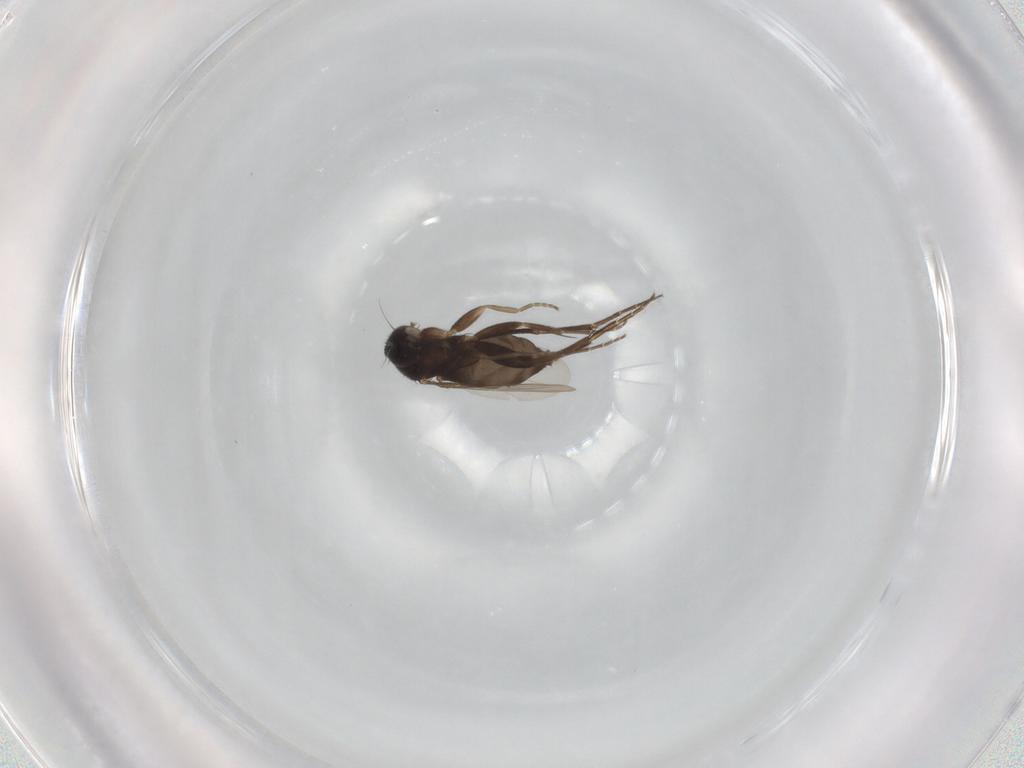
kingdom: Animalia
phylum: Arthropoda
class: Insecta
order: Diptera
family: Phoridae
